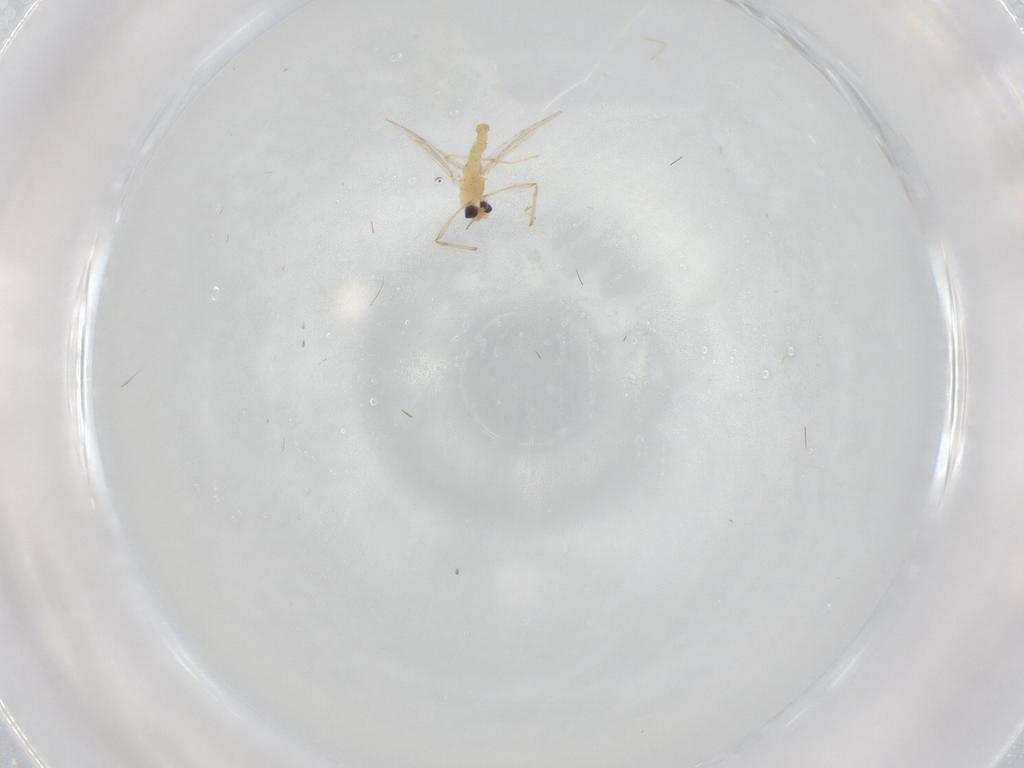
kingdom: Animalia
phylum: Arthropoda
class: Insecta
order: Diptera
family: Chironomidae
